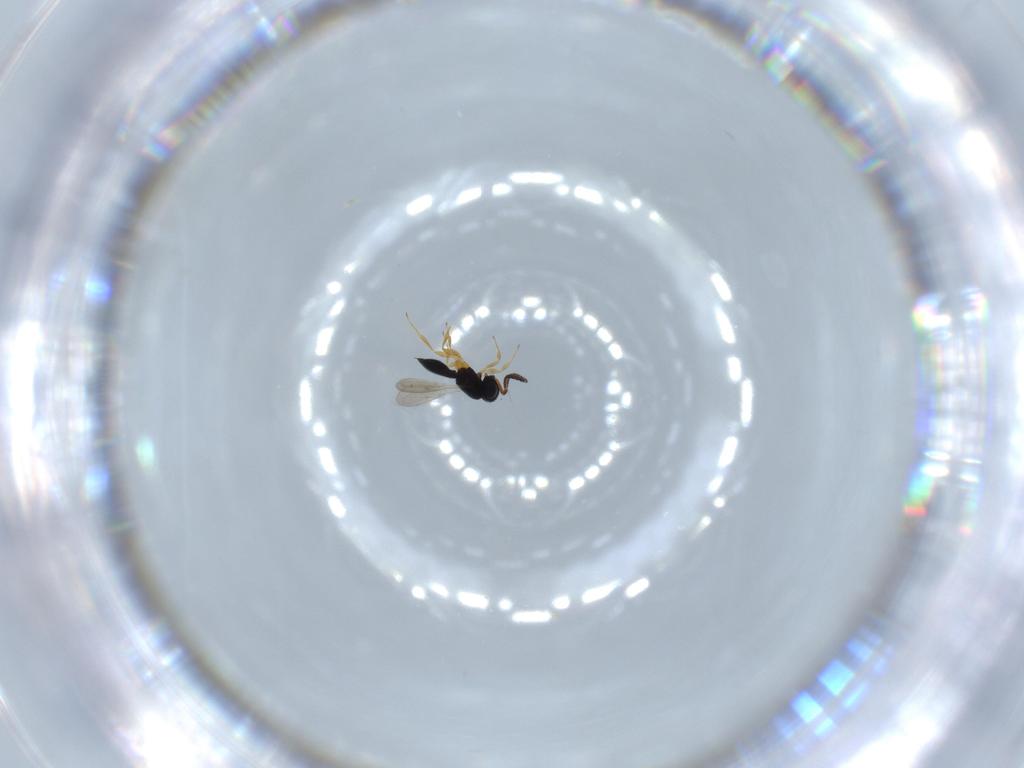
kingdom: Animalia
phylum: Arthropoda
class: Insecta
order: Hymenoptera
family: Scelionidae
